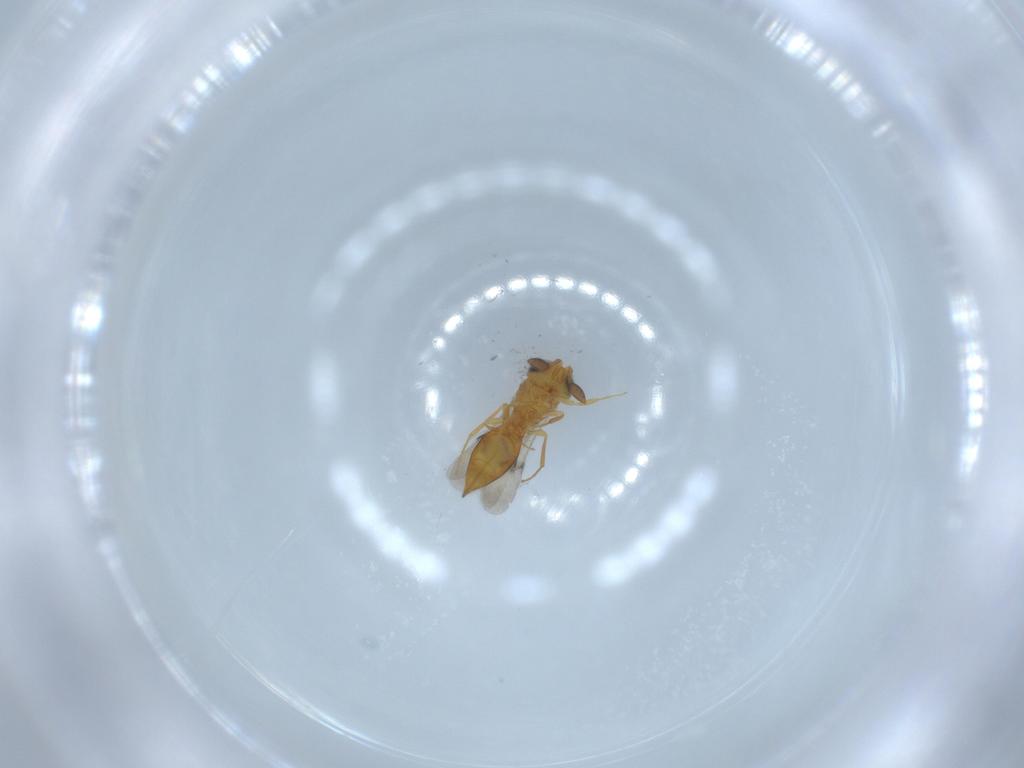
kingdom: Animalia
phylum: Arthropoda
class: Insecta
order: Hymenoptera
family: Scelionidae
